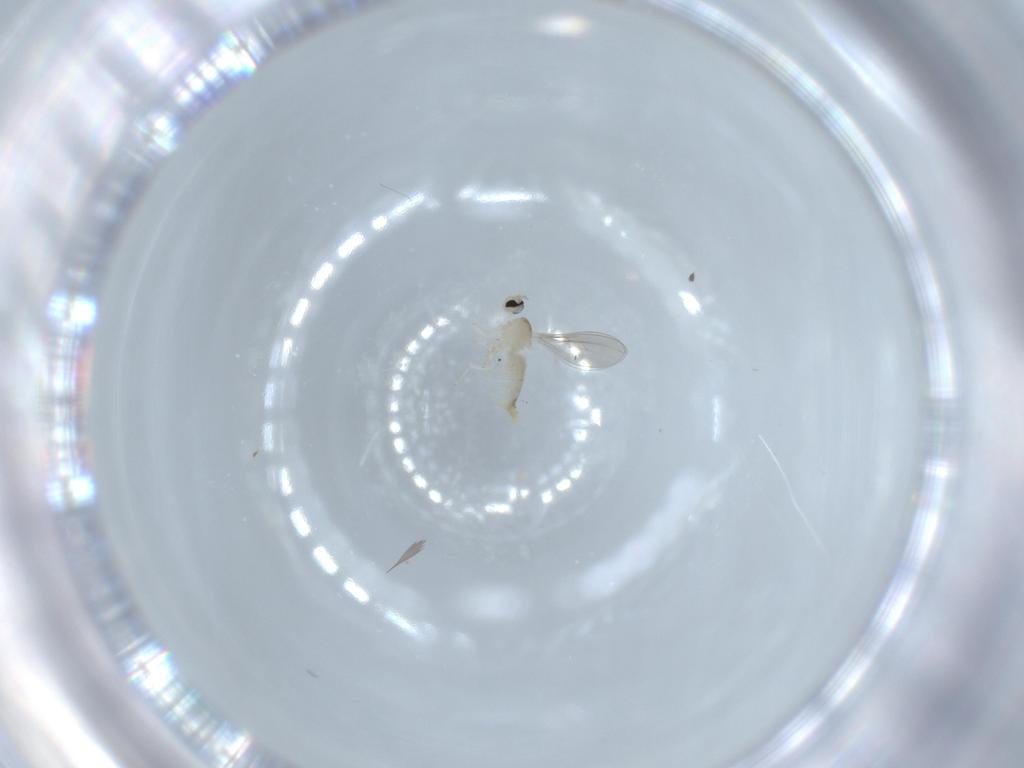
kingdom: Animalia
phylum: Arthropoda
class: Insecta
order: Diptera
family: Cecidomyiidae
